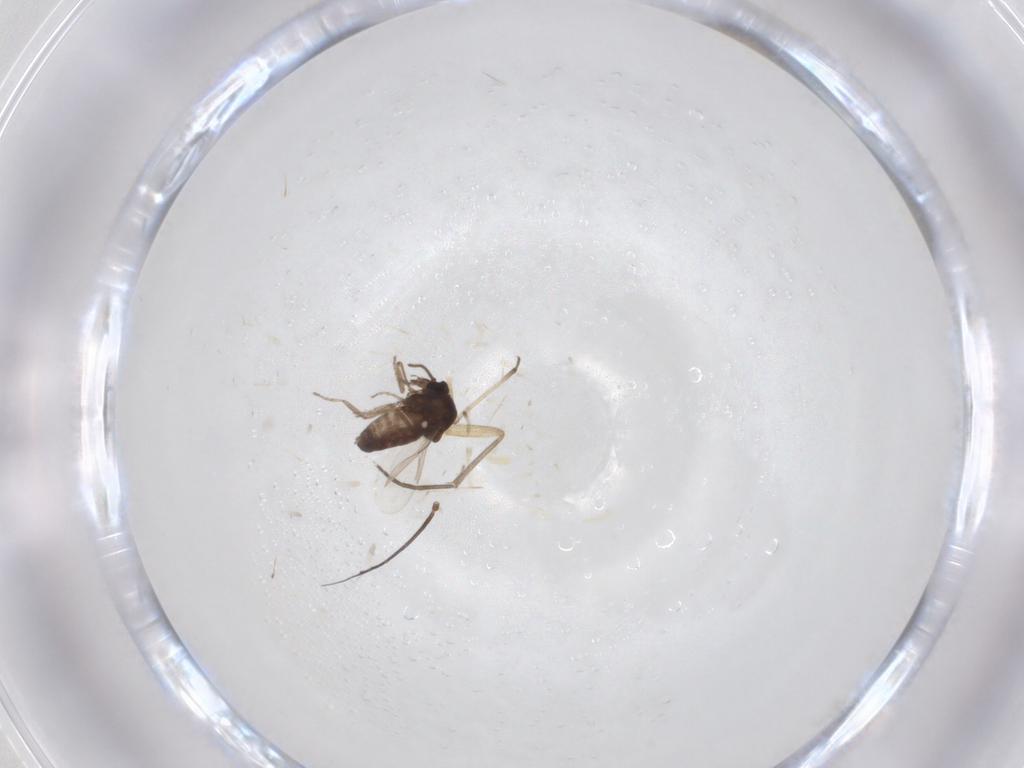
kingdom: Animalia
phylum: Arthropoda
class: Insecta
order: Diptera
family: Ceratopogonidae
